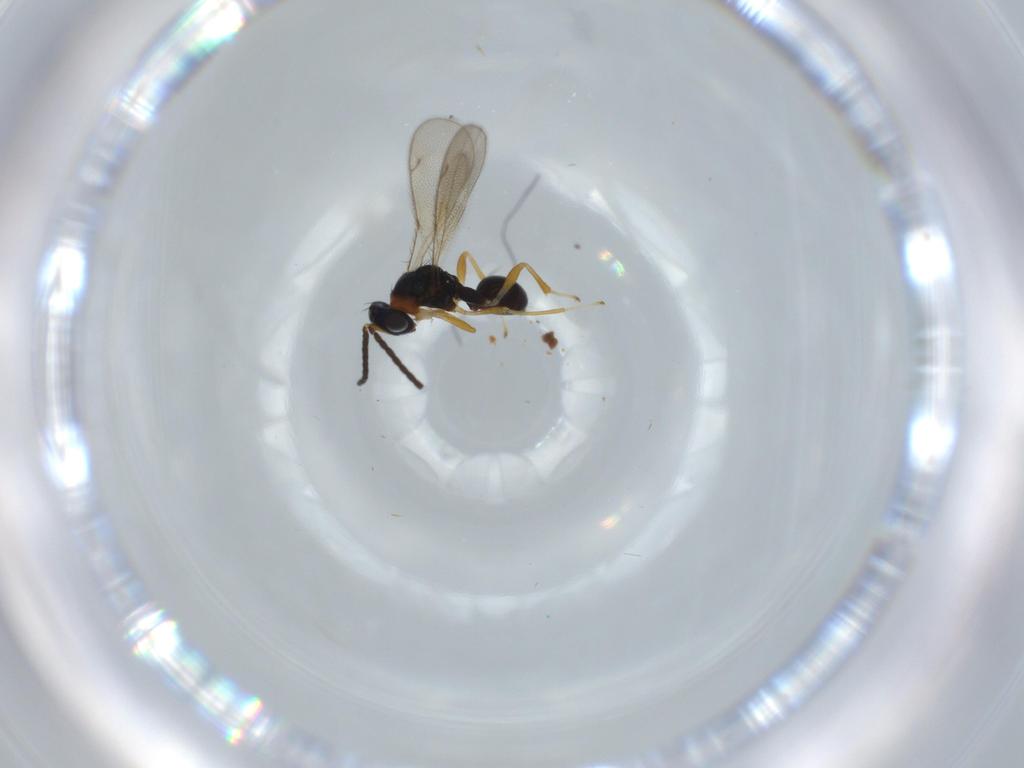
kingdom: Animalia
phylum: Arthropoda
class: Insecta
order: Hymenoptera
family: Diparidae
